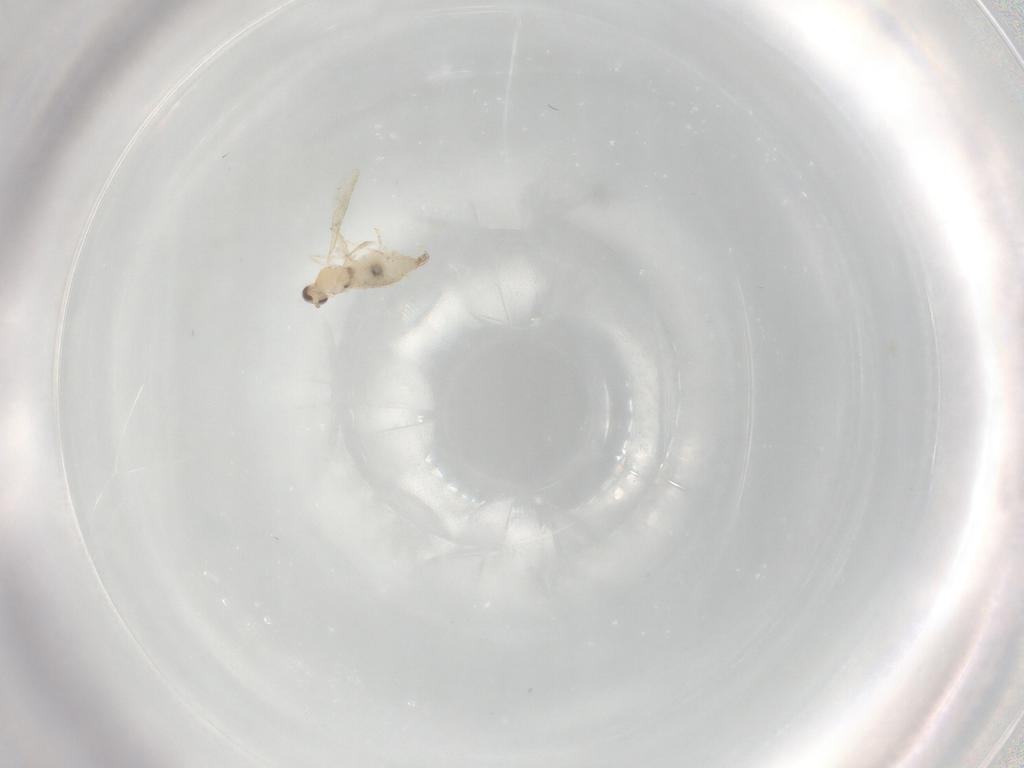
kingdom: Animalia
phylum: Arthropoda
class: Insecta
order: Diptera
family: Cecidomyiidae
